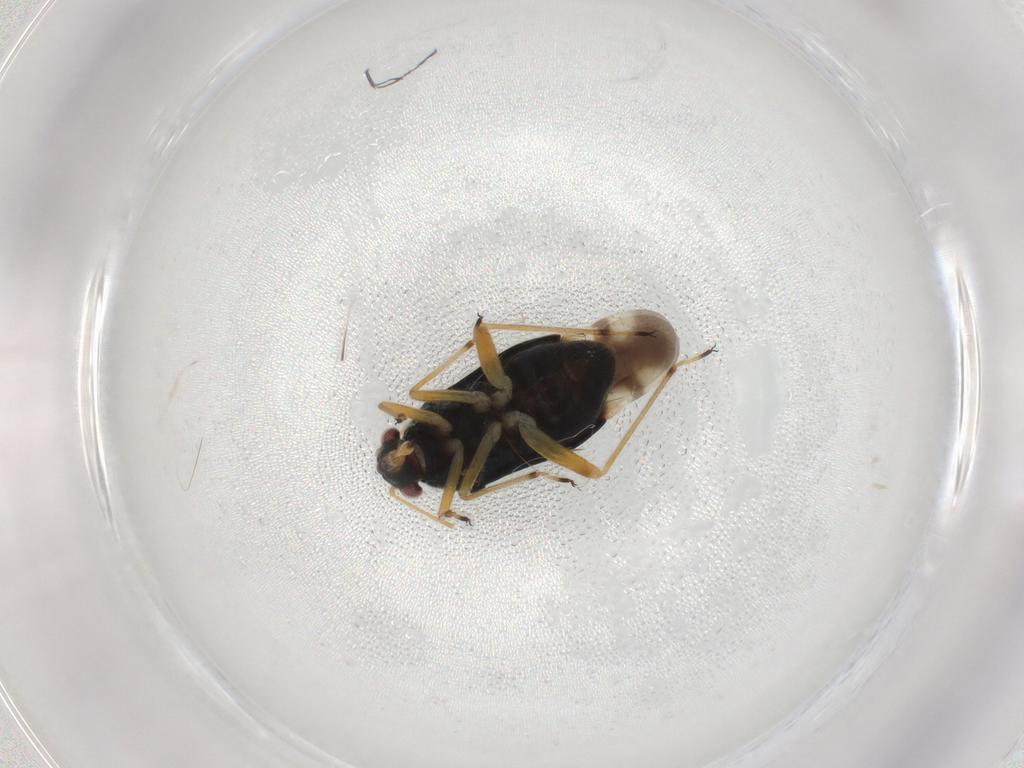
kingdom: Animalia
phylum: Arthropoda
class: Insecta
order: Hemiptera
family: Miridae
